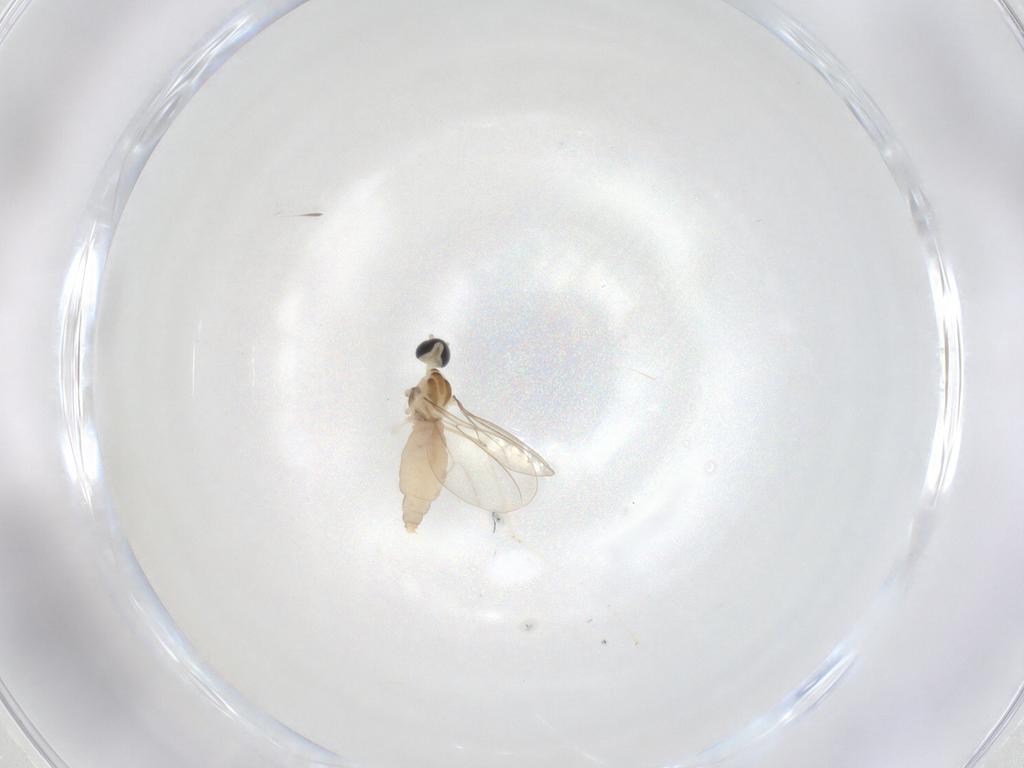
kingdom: Animalia
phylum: Arthropoda
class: Insecta
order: Diptera
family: Cecidomyiidae
